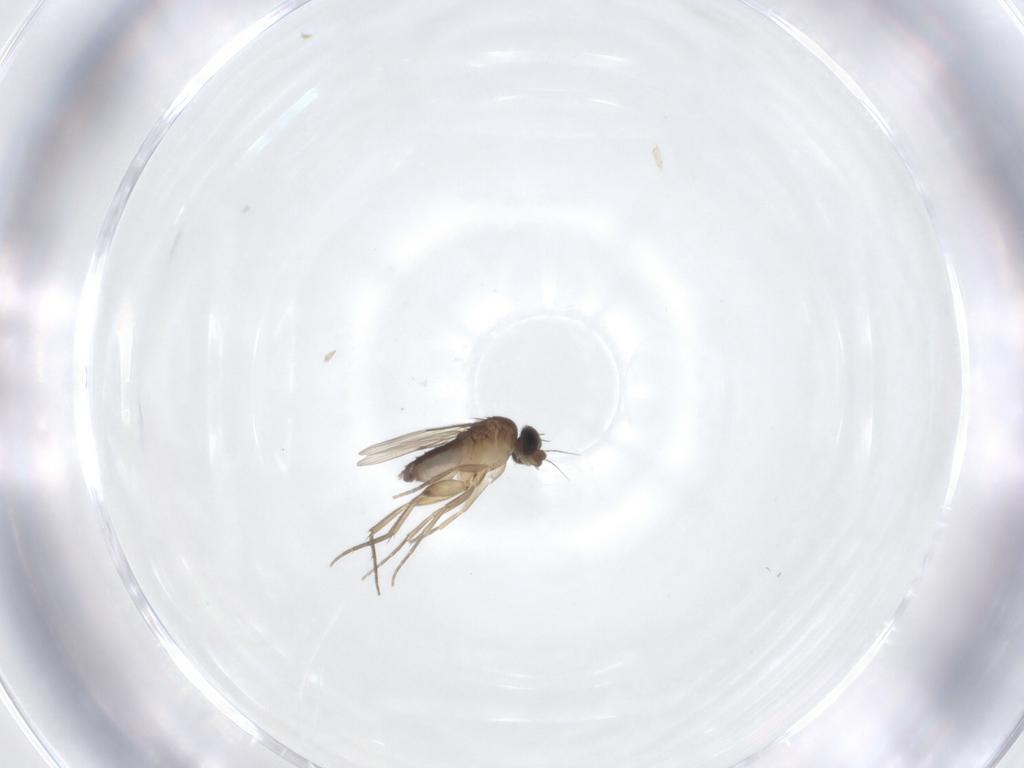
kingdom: Animalia
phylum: Arthropoda
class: Insecta
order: Diptera
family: Phoridae
